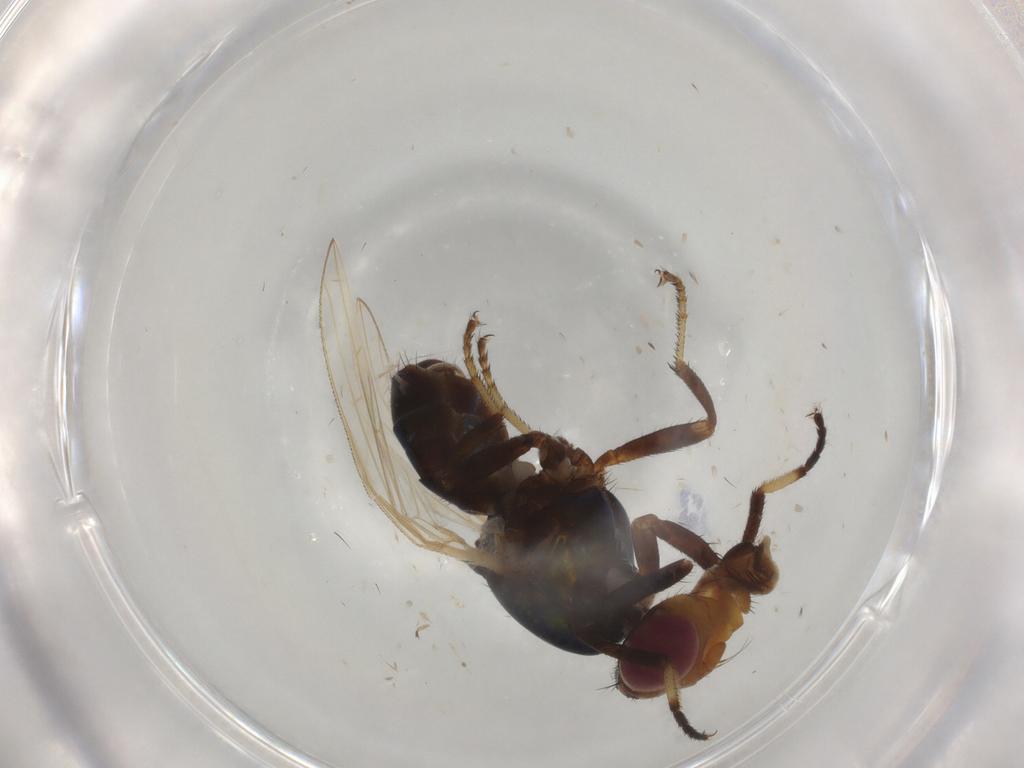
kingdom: Animalia
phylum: Arthropoda
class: Insecta
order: Diptera
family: Ulidiidae
